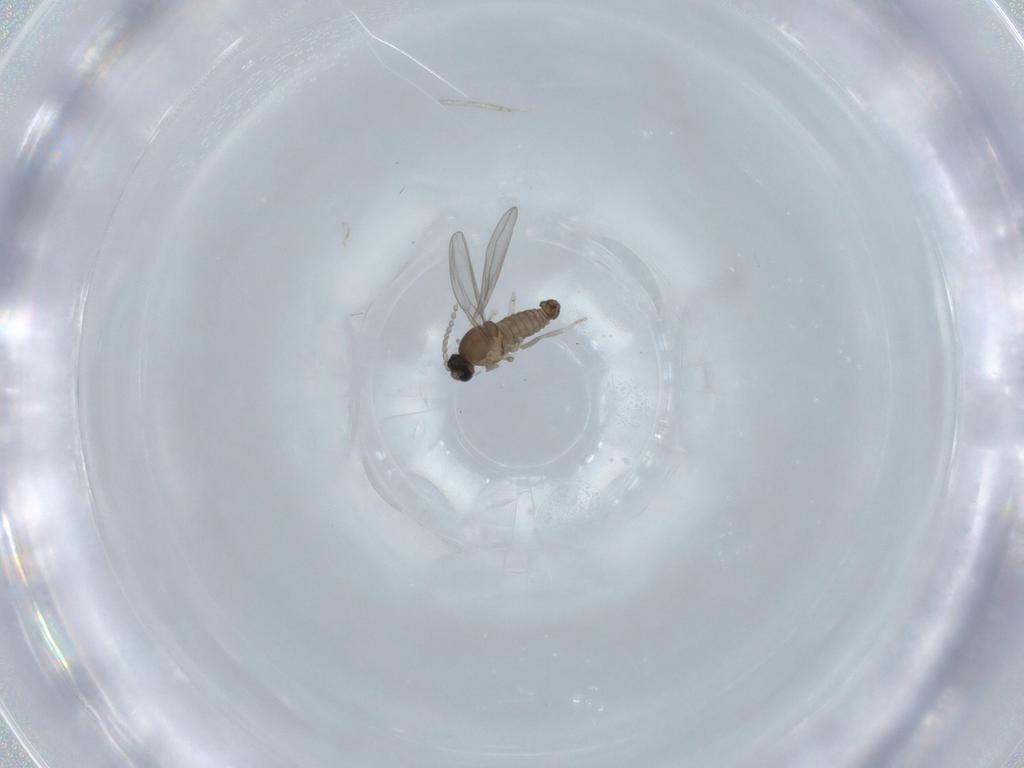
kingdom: Animalia
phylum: Arthropoda
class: Insecta
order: Diptera
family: Cecidomyiidae
